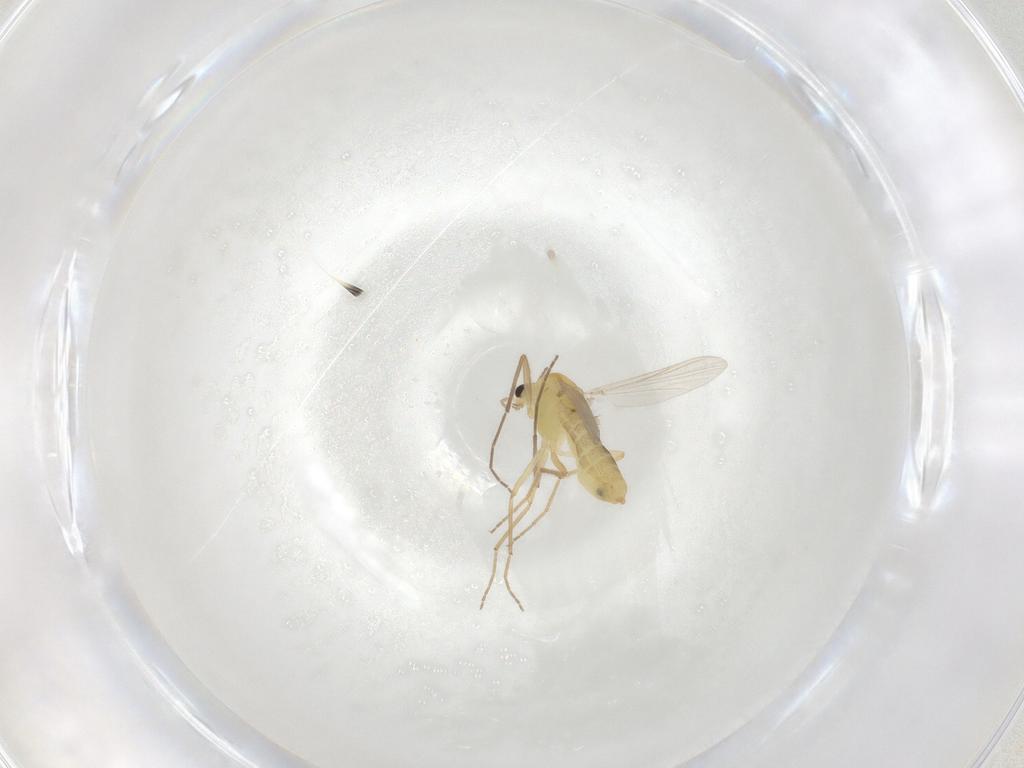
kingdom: Animalia
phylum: Arthropoda
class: Insecta
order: Diptera
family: Chironomidae
